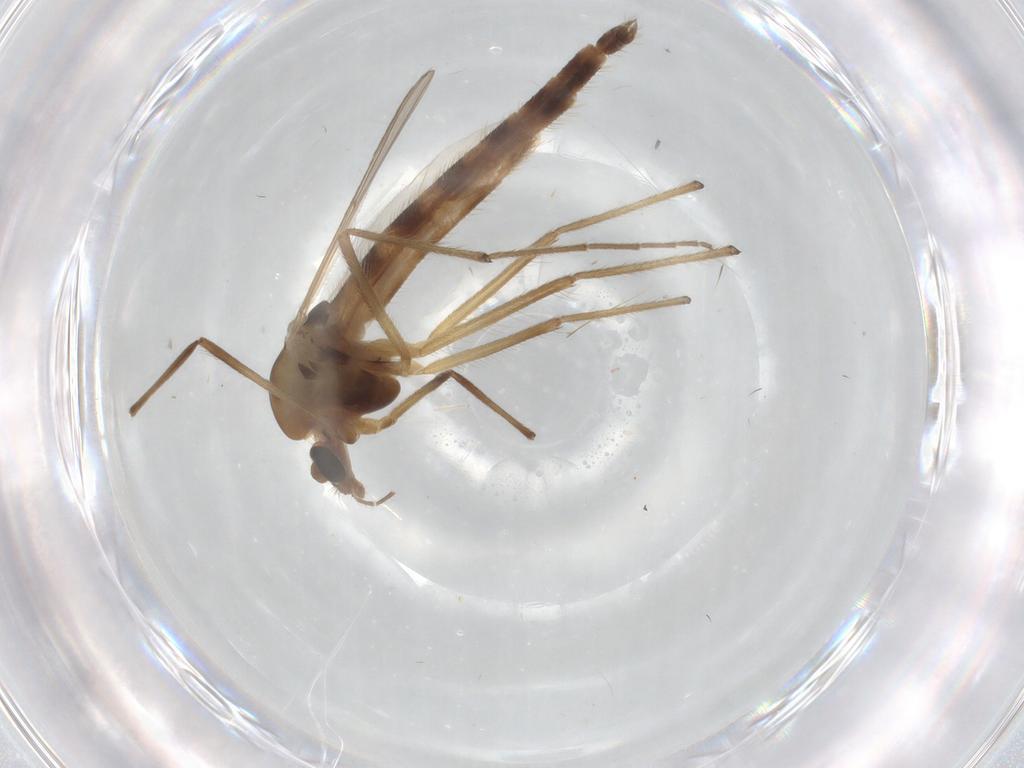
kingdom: Animalia
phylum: Arthropoda
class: Insecta
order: Diptera
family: Chironomidae
